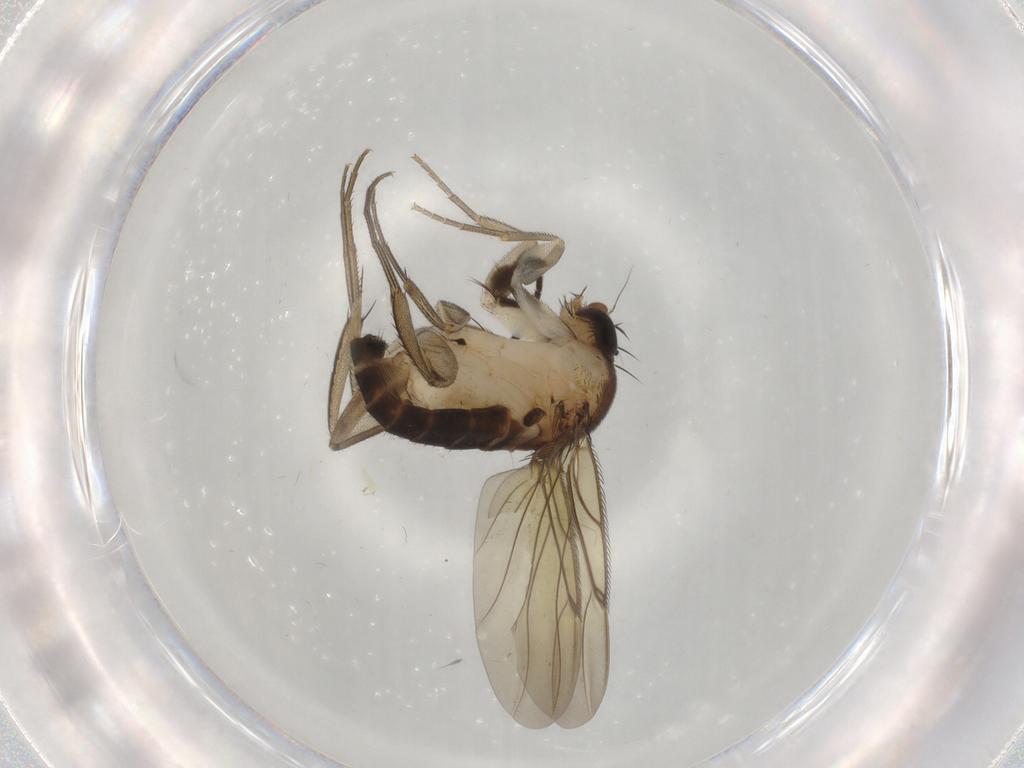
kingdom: Animalia
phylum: Arthropoda
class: Insecta
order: Diptera
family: Sciaridae
